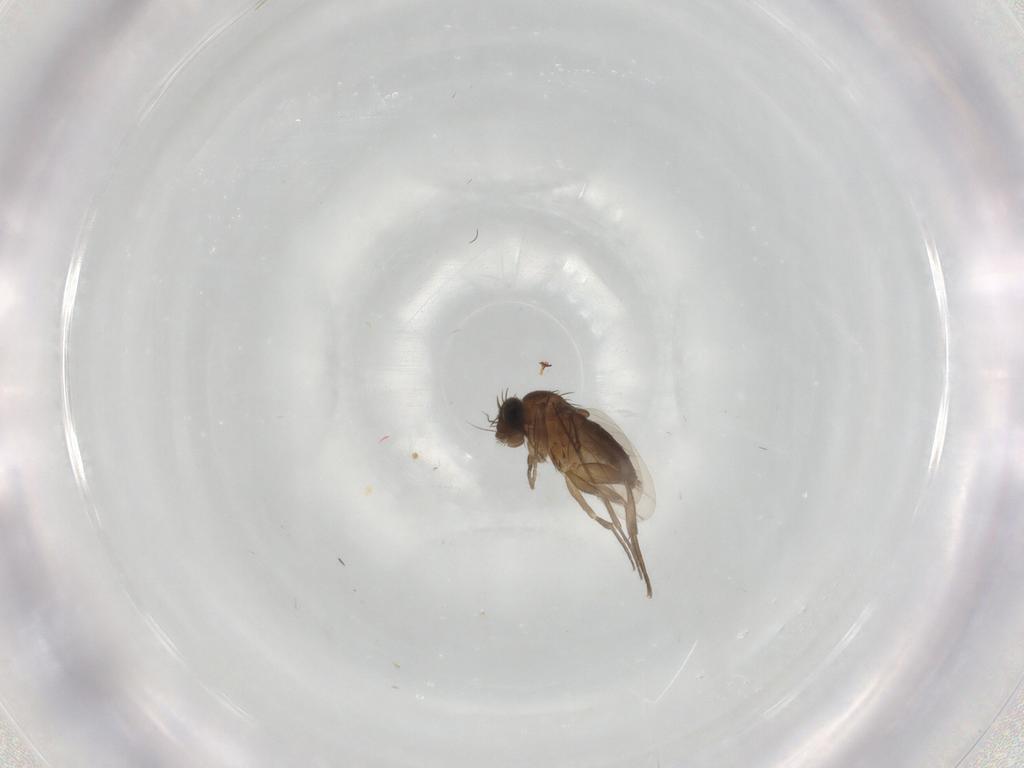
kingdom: Animalia
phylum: Arthropoda
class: Insecta
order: Diptera
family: Phoridae
